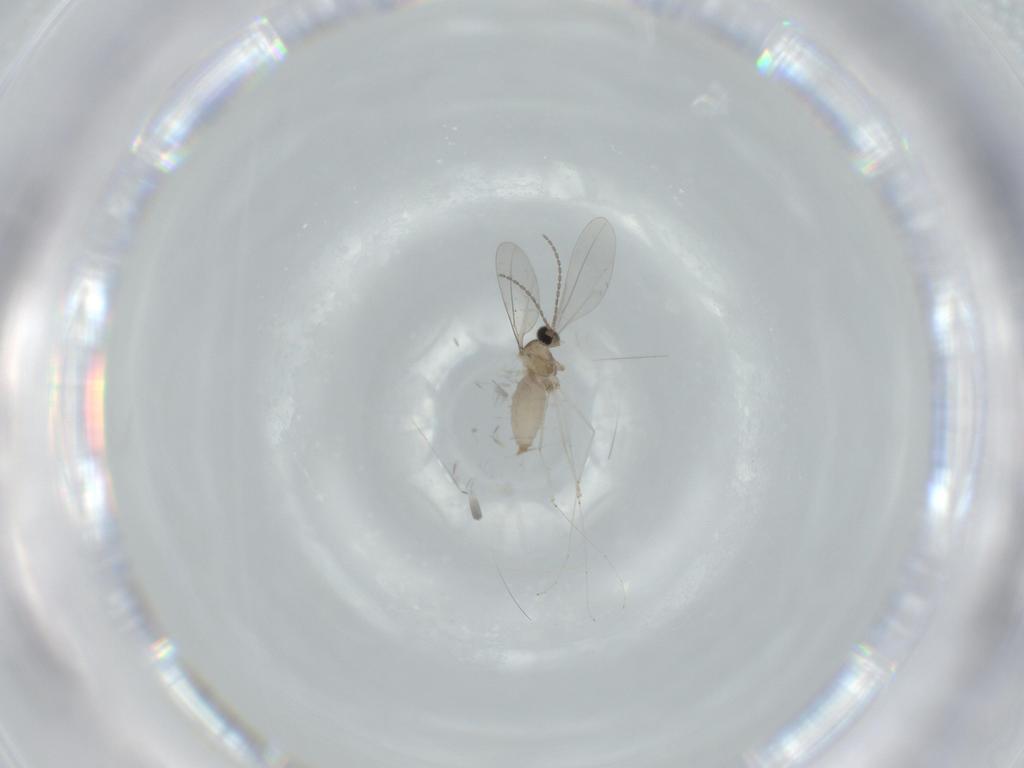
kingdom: Animalia
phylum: Arthropoda
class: Insecta
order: Diptera
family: Cecidomyiidae
